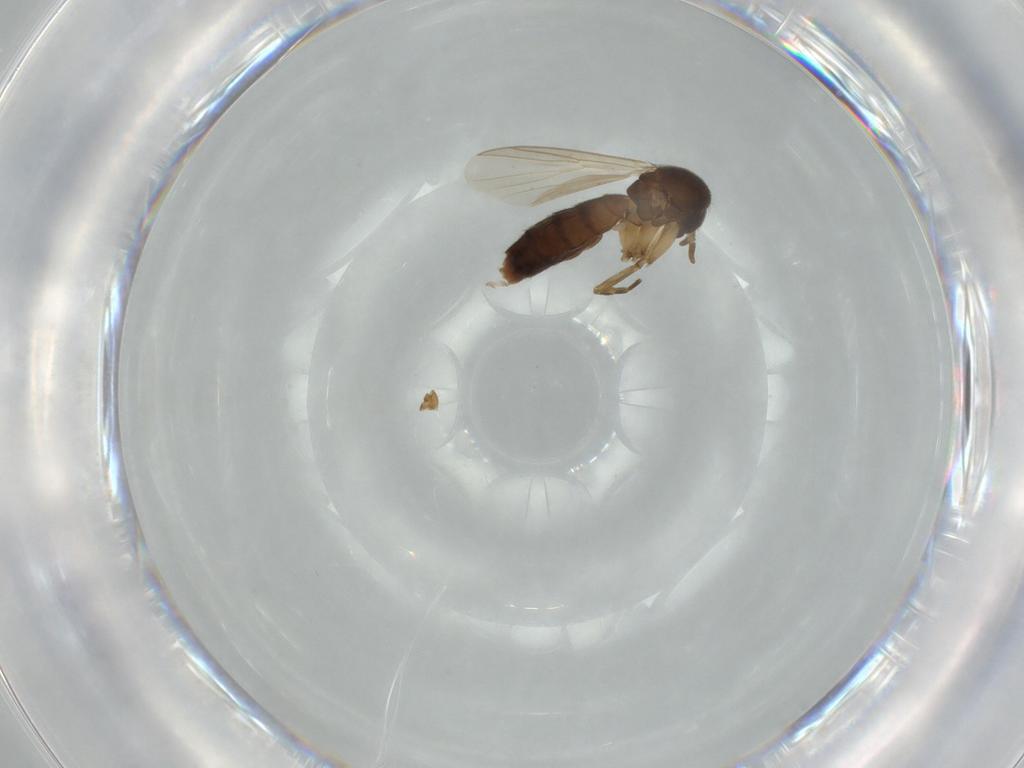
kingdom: Animalia
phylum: Arthropoda
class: Insecta
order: Diptera
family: Mycetophilidae
